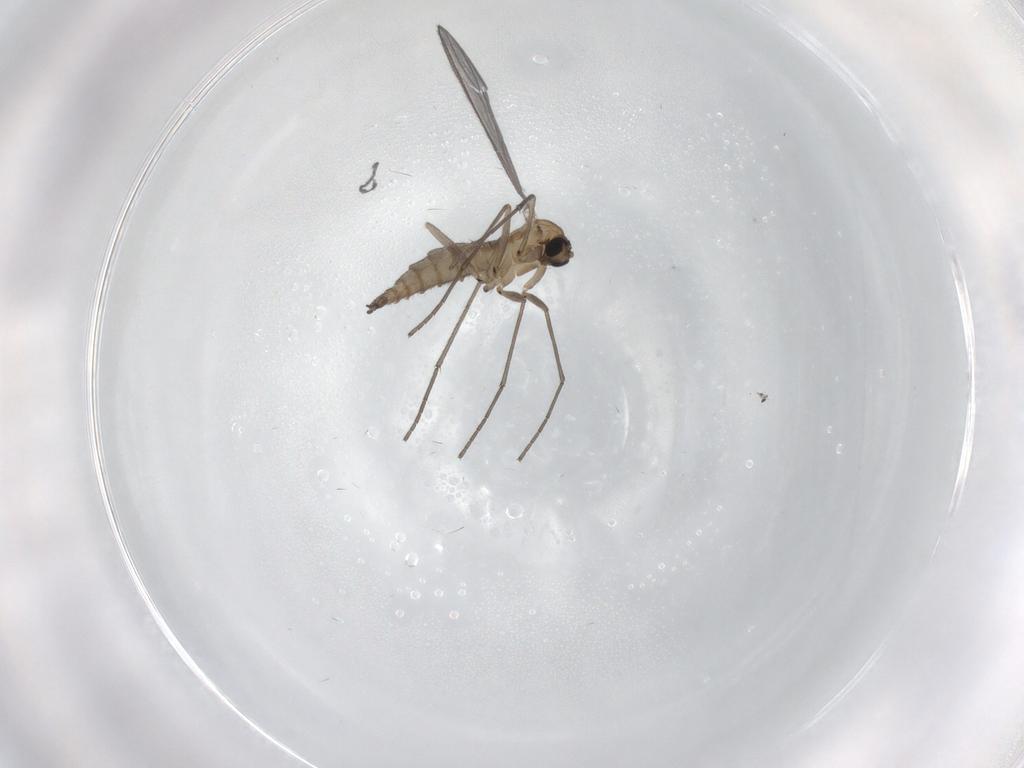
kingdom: Animalia
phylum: Arthropoda
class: Insecta
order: Diptera
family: Sciaridae
